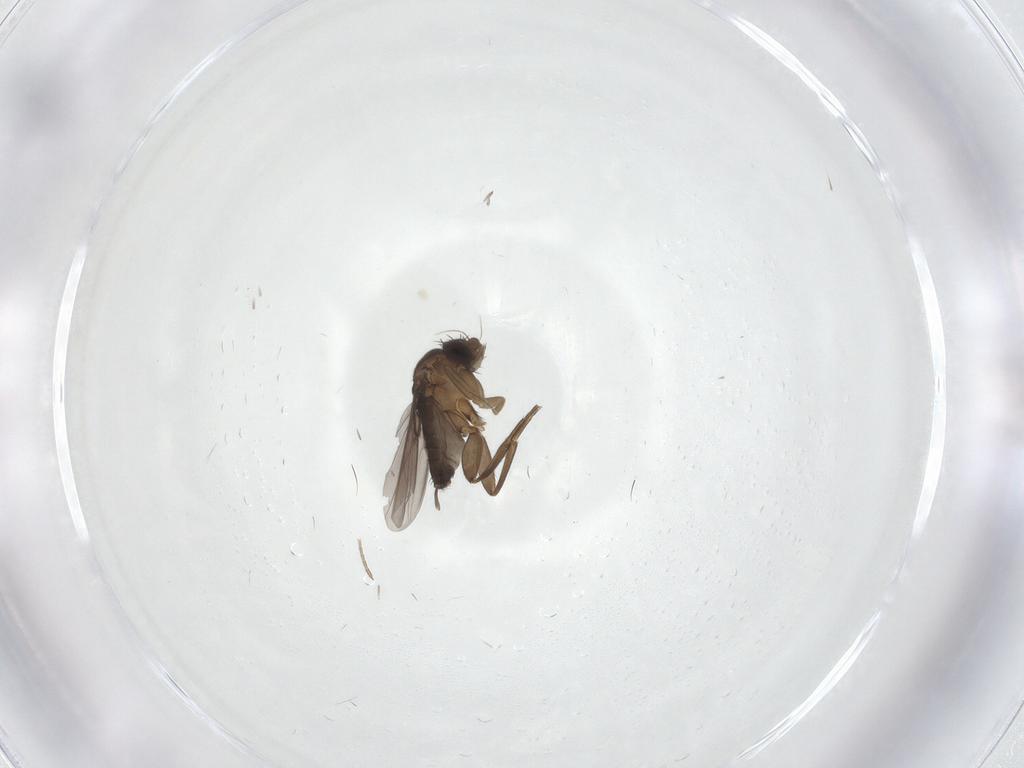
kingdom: Animalia
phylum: Arthropoda
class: Insecta
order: Diptera
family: Phoridae
